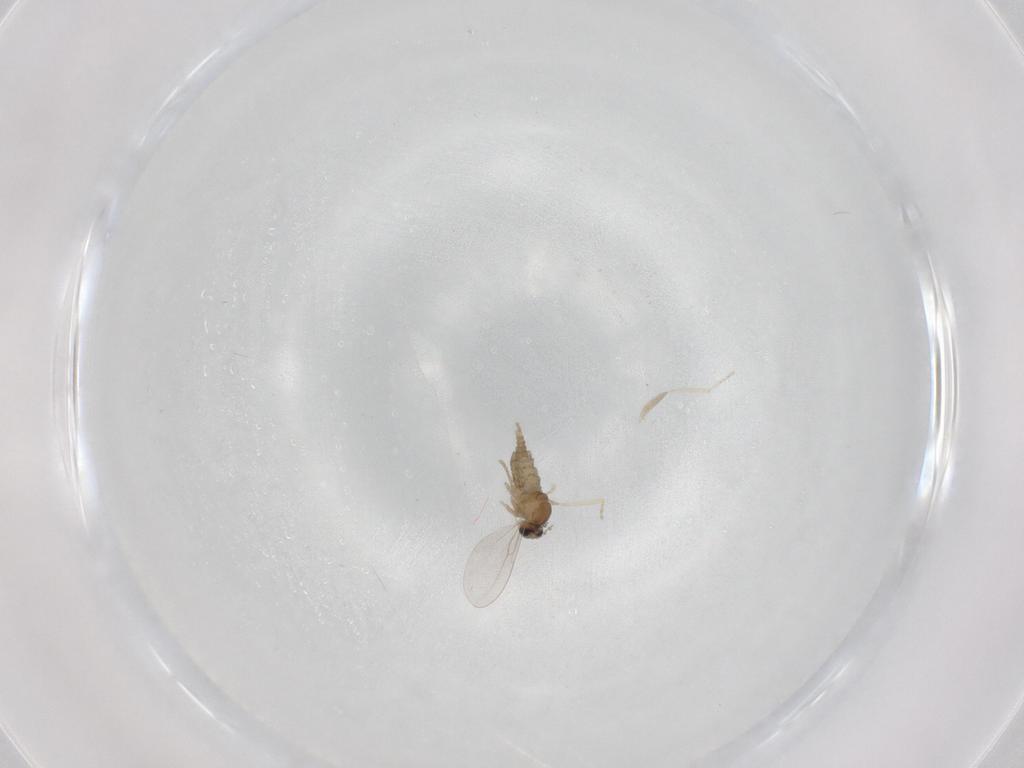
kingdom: Animalia
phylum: Arthropoda
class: Insecta
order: Diptera
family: Cecidomyiidae
